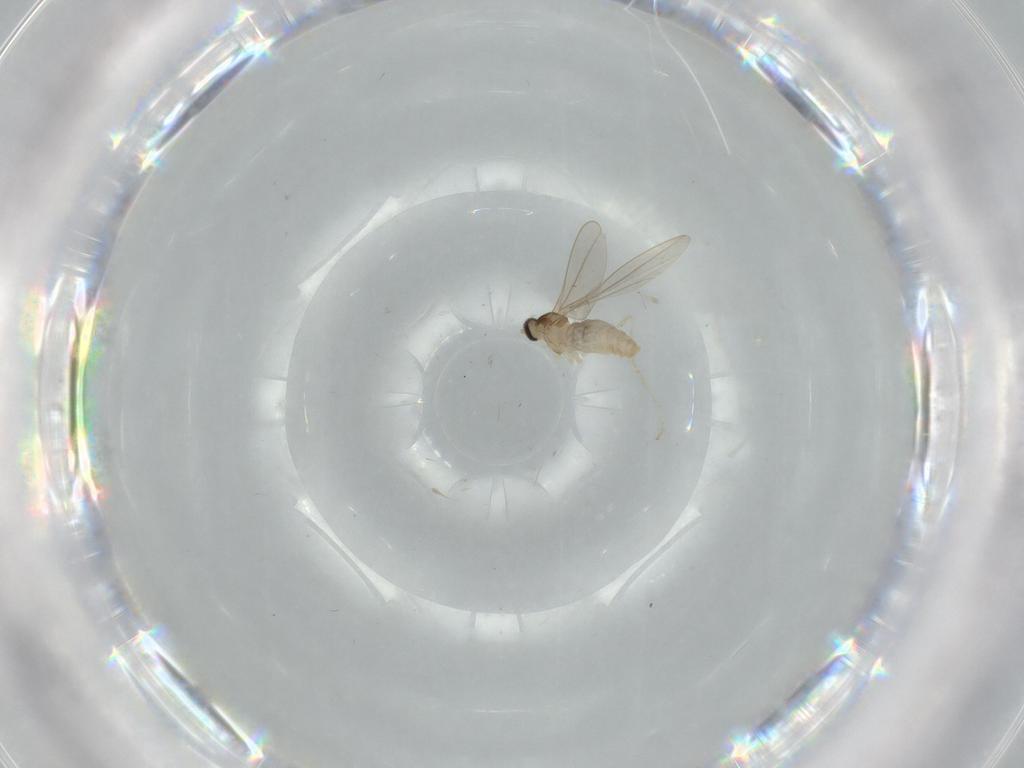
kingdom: Animalia
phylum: Arthropoda
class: Insecta
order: Diptera
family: Cecidomyiidae
